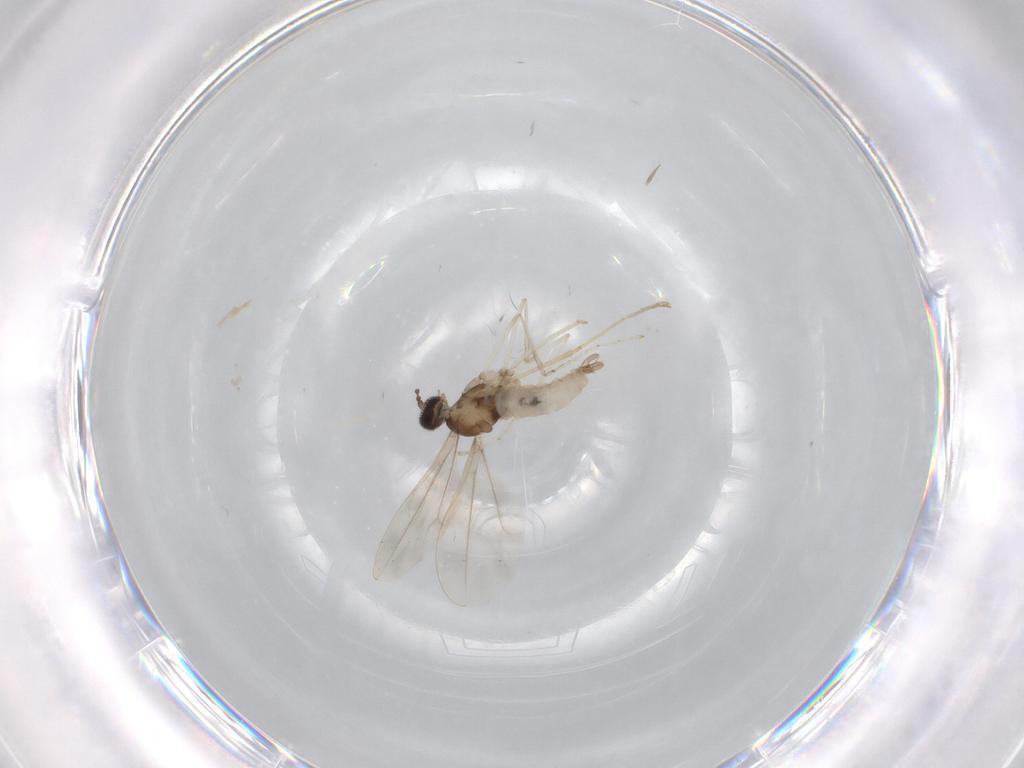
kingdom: Animalia
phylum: Arthropoda
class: Insecta
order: Diptera
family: Cecidomyiidae
